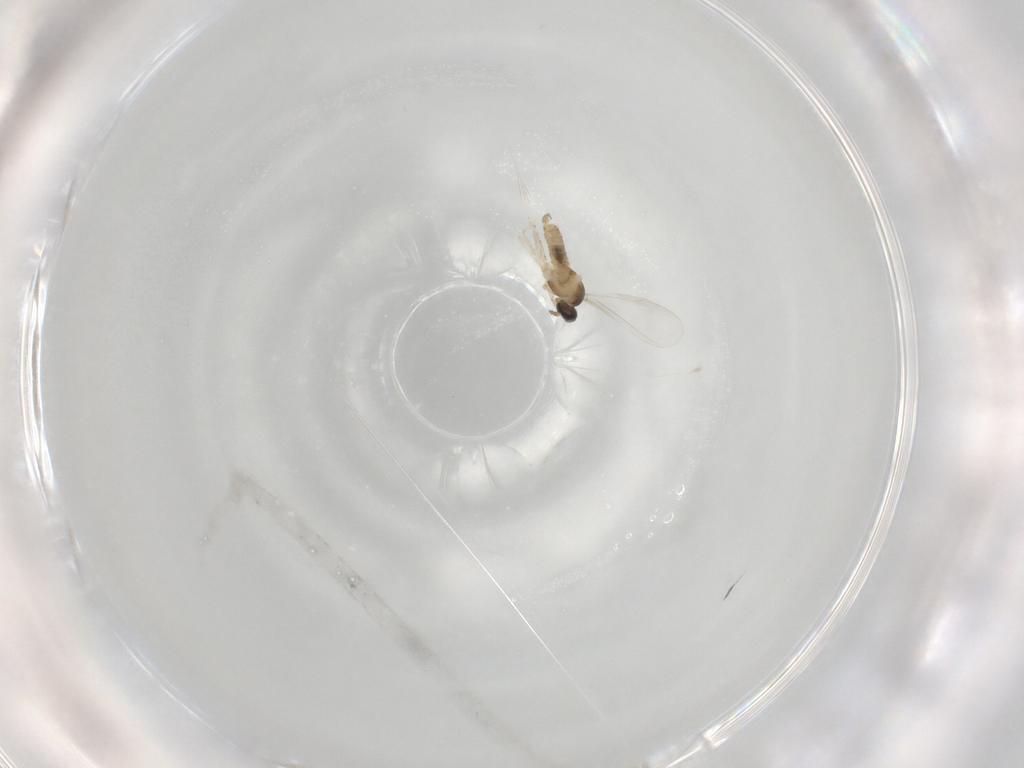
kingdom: Animalia
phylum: Arthropoda
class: Insecta
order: Diptera
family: Cecidomyiidae
